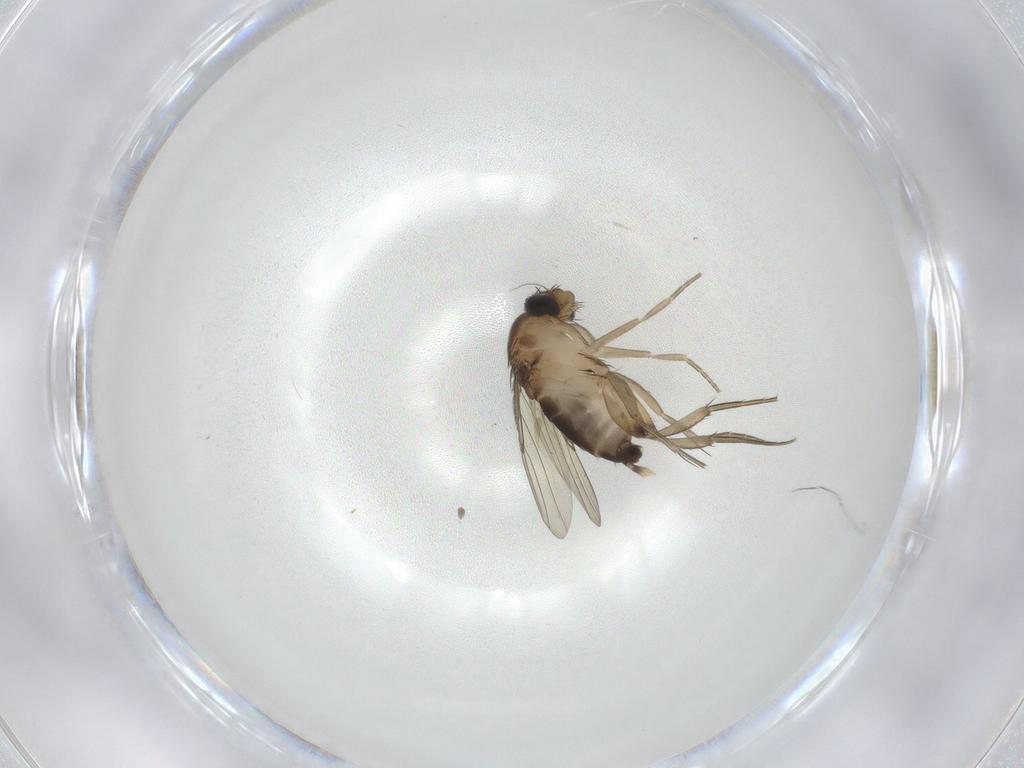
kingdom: Animalia
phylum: Arthropoda
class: Insecta
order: Diptera
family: Phoridae
